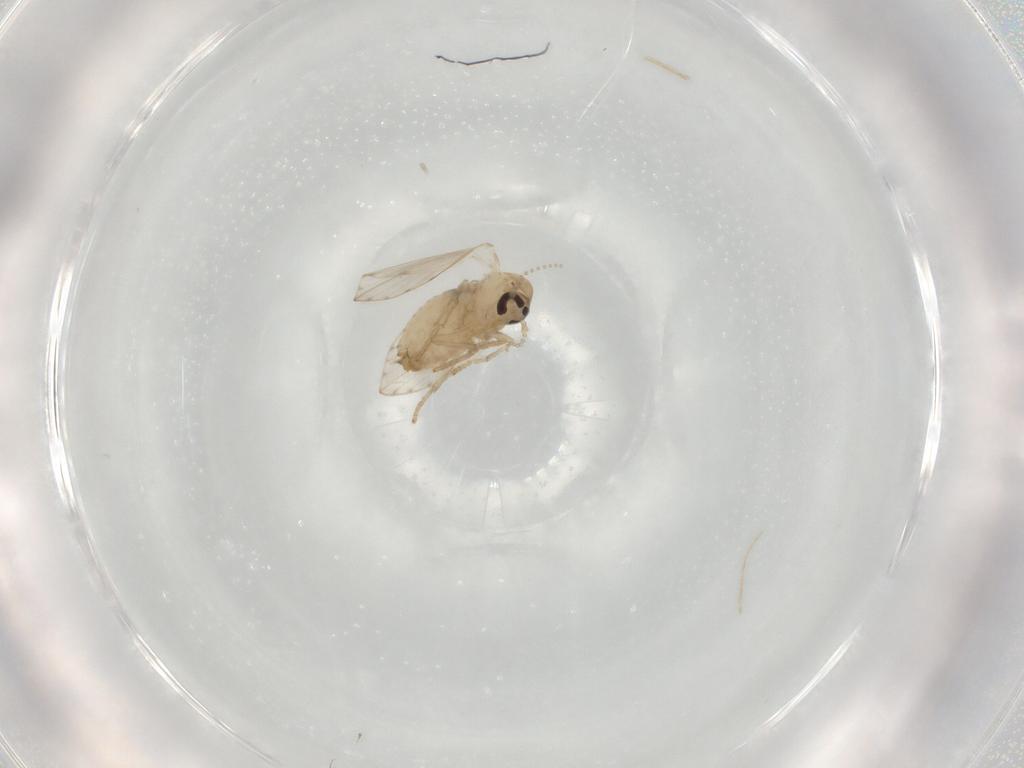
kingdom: Animalia
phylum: Arthropoda
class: Insecta
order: Diptera
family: Psychodidae
